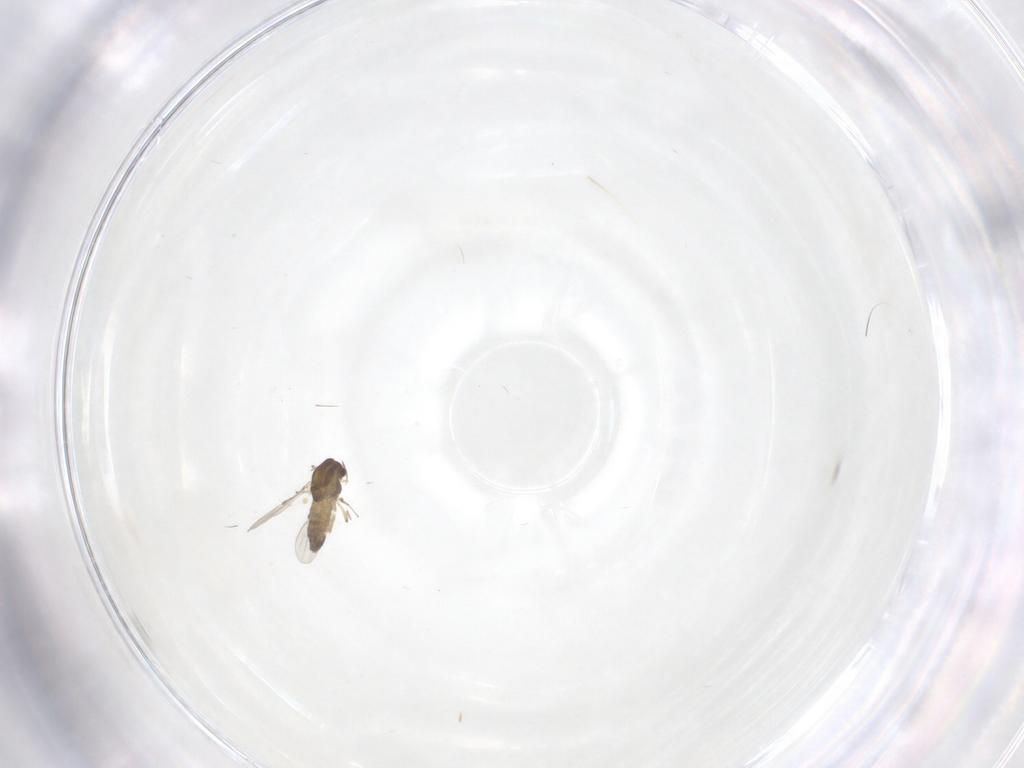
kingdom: Animalia
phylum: Arthropoda
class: Insecta
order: Diptera
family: Chironomidae
